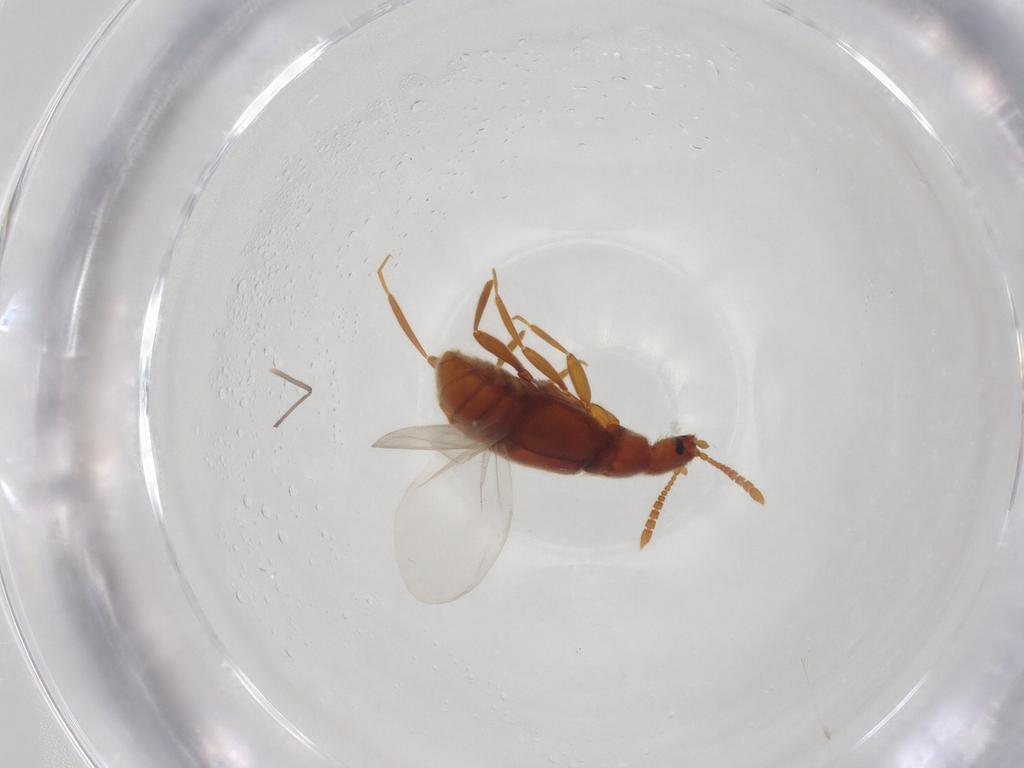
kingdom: Animalia
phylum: Arthropoda
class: Insecta
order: Coleoptera
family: Staphylinidae
